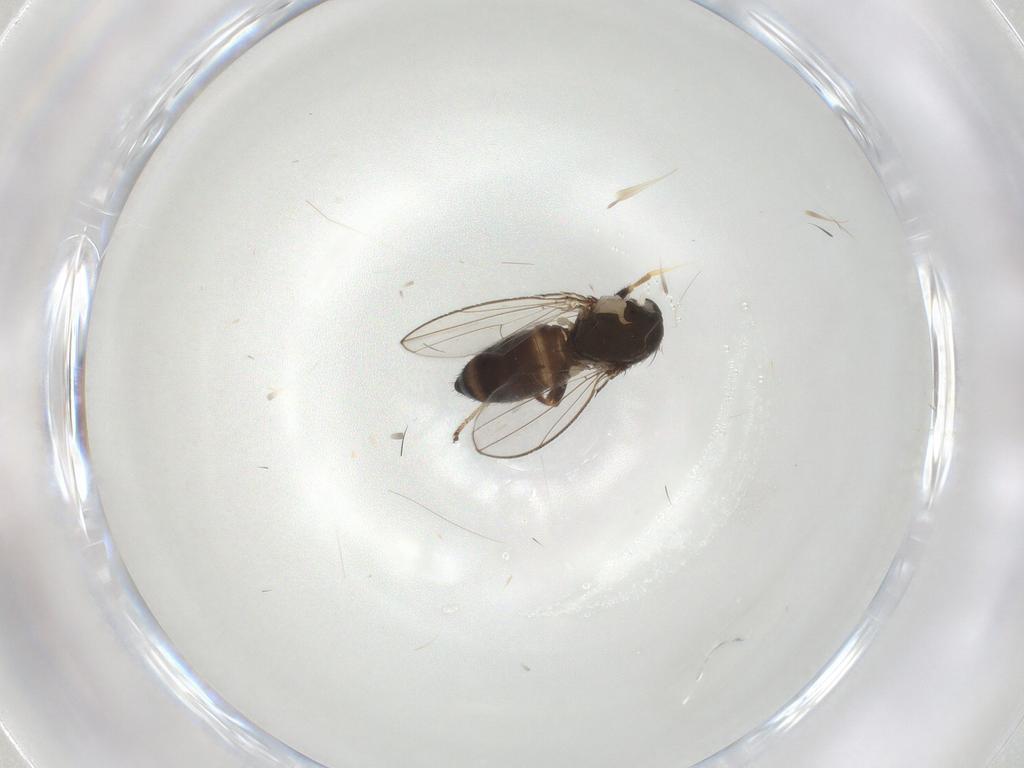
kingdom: Animalia
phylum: Arthropoda
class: Insecta
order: Diptera
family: Ephydridae
